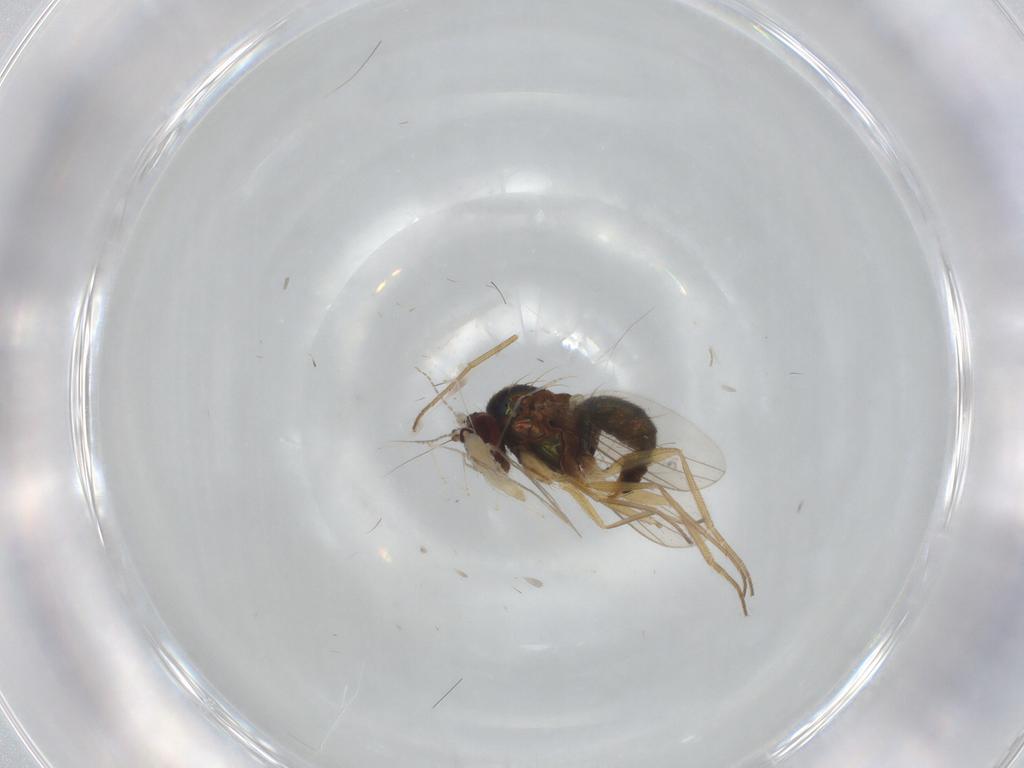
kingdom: Animalia
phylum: Arthropoda
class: Insecta
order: Diptera
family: Cecidomyiidae
